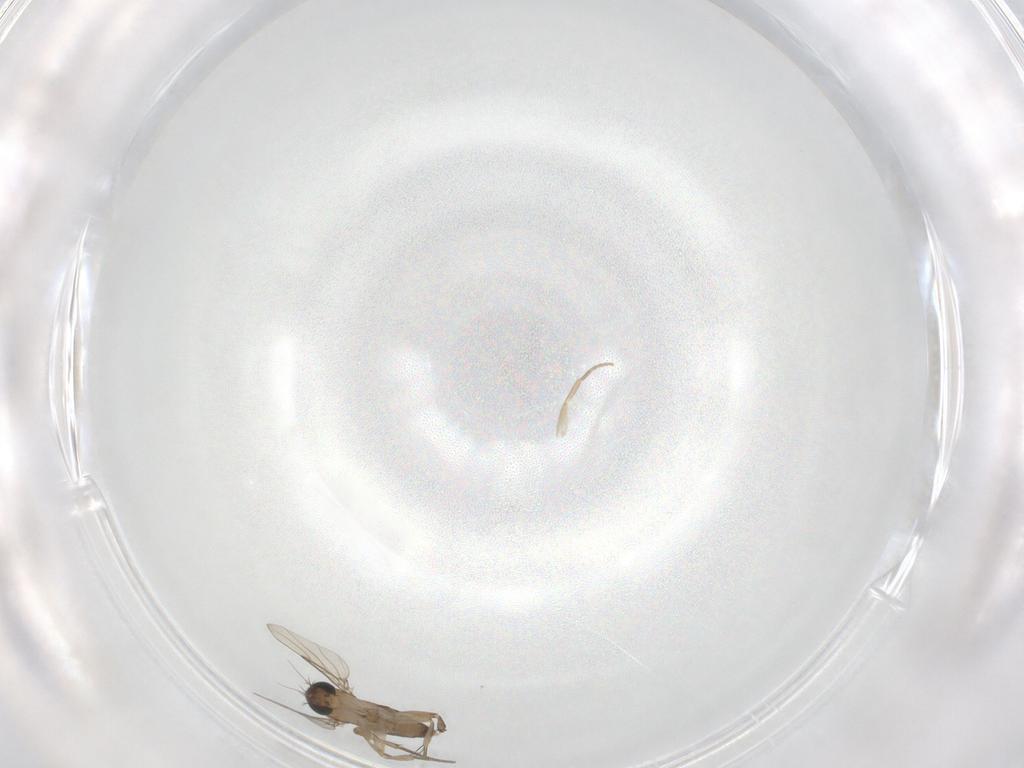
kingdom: Animalia
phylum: Arthropoda
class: Insecta
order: Diptera
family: Phoridae
